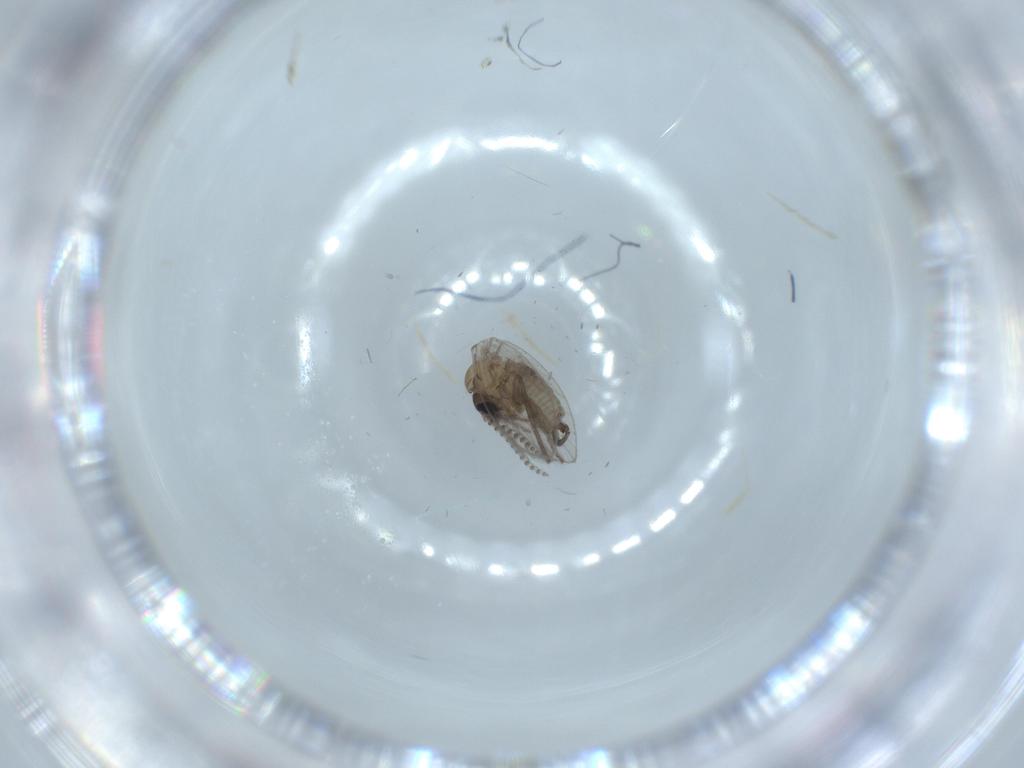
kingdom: Animalia
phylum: Arthropoda
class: Insecta
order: Diptera
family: Psychodidae
